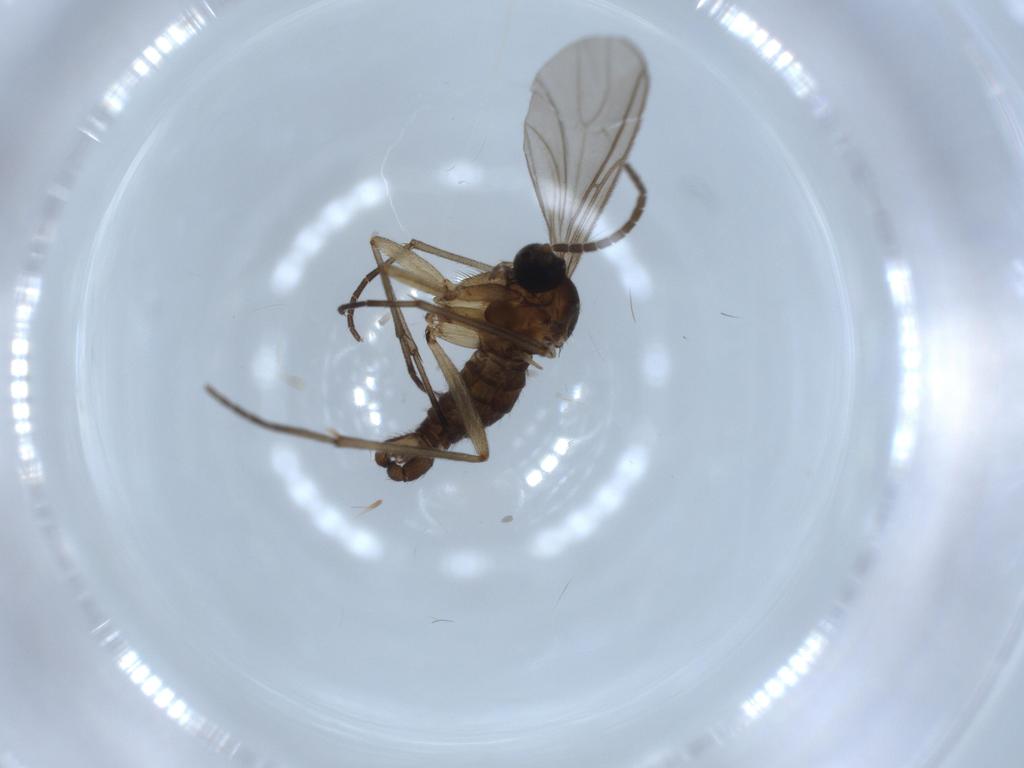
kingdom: Animalia
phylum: Arthropoda
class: Insecta
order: Diptera
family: Sciaridae
